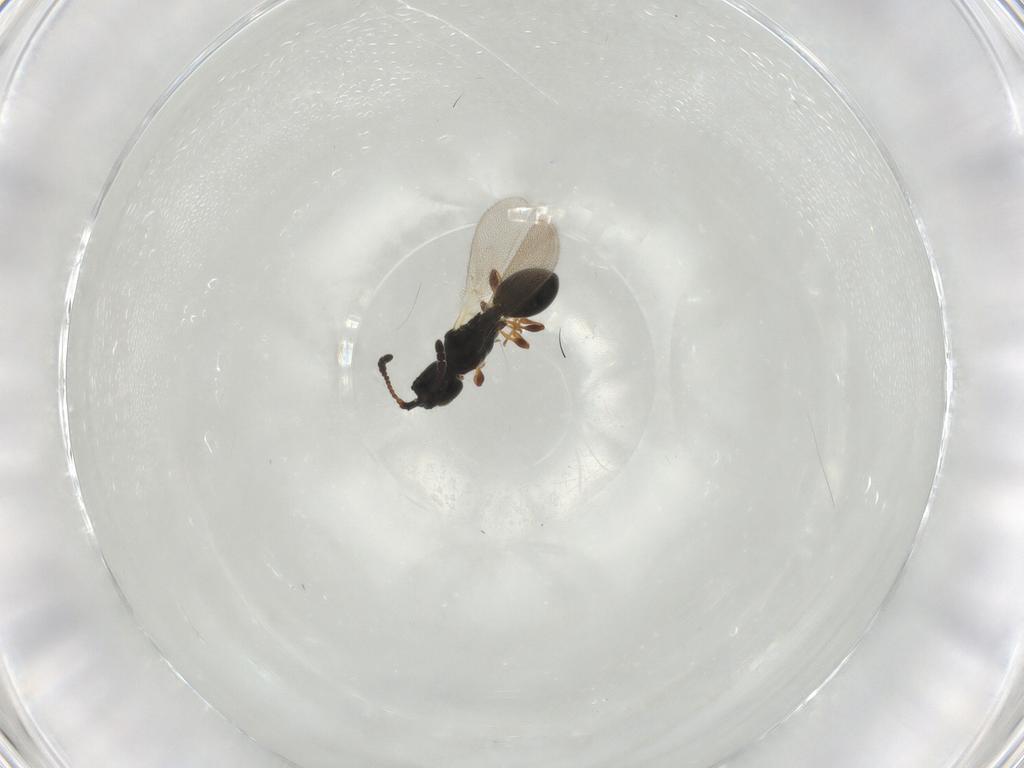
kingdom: Animalia
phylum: Arthropoda
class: Insecta
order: Hymenoptera
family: Diapriidae
